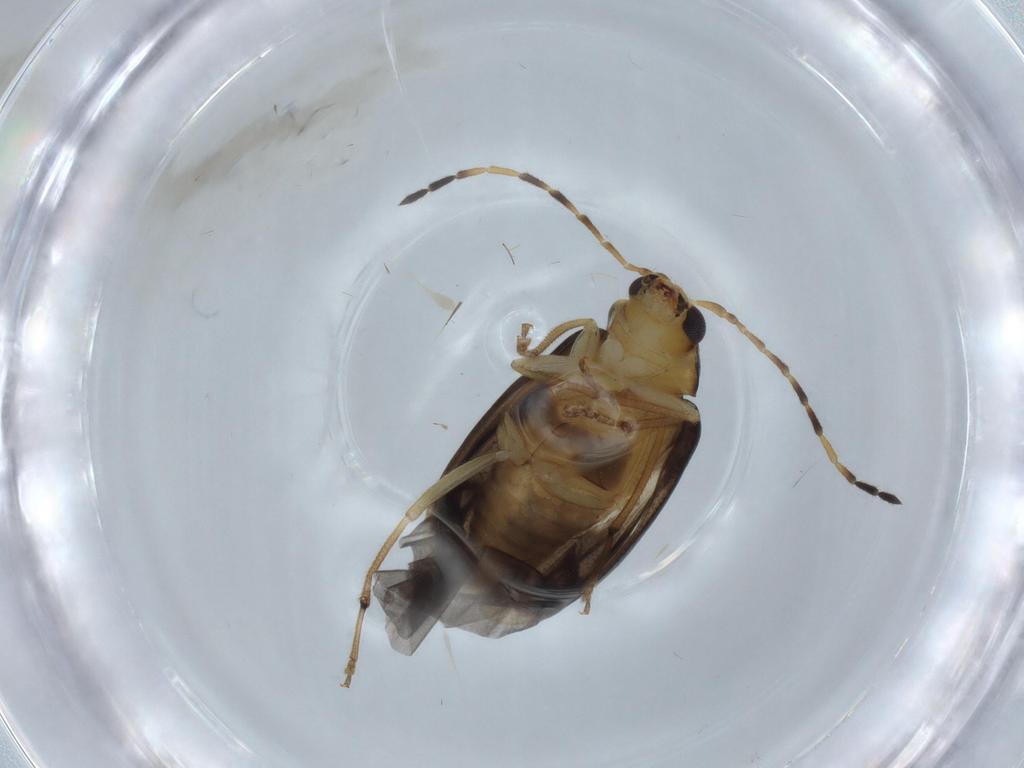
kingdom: Animalia
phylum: Arthropoda
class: Insecta
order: Coleoptera
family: Chrysomelidae
